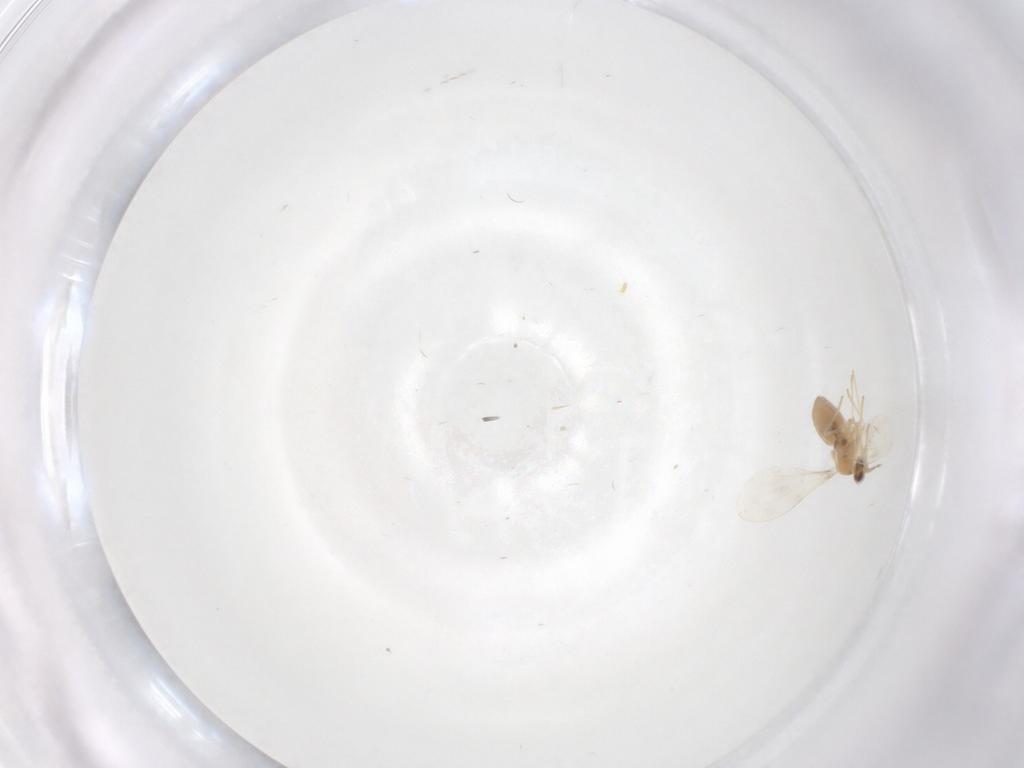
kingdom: Animalia
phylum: Arthropoda
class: Insecta
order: Diptera
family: Cecidomyiidae
